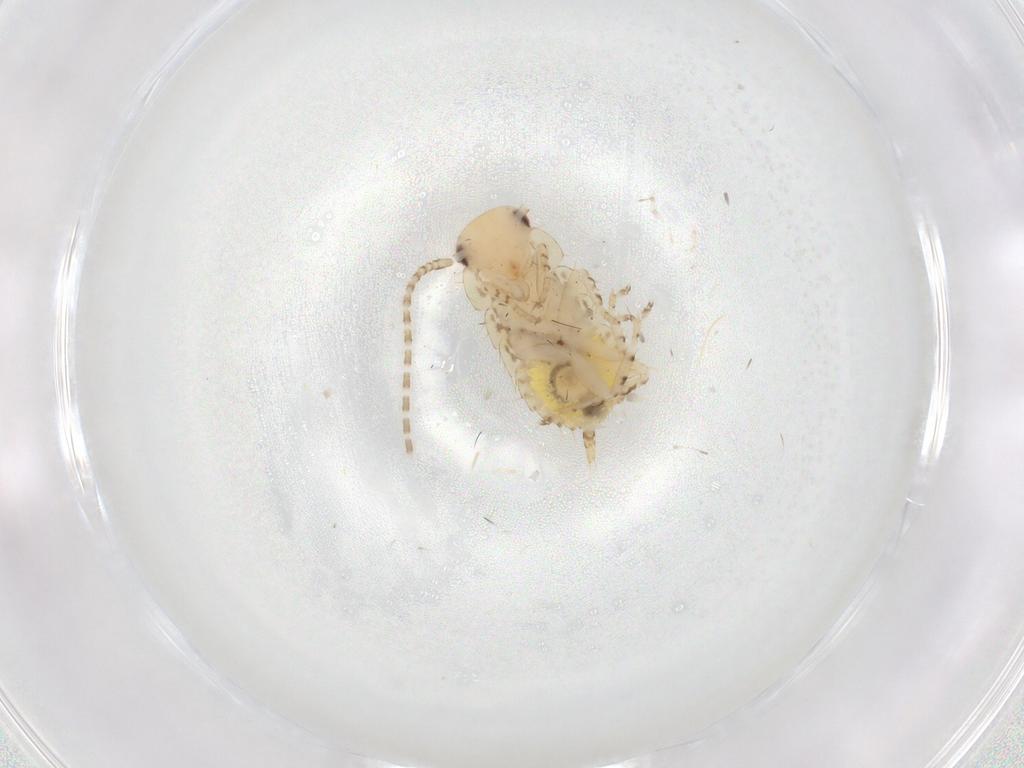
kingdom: Animalia
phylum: Arthropoda
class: Insecta
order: Blattodea
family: Ectobiidae
